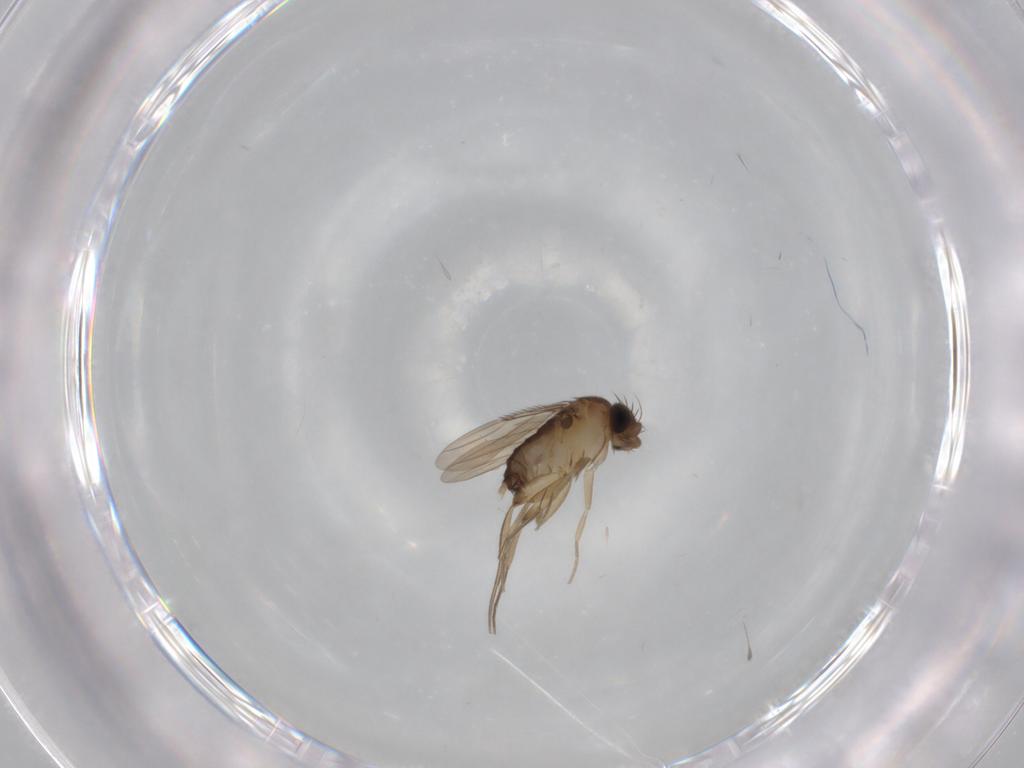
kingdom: Animalia
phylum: Arthropoda
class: Insecta
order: Diptera
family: Phoridae
